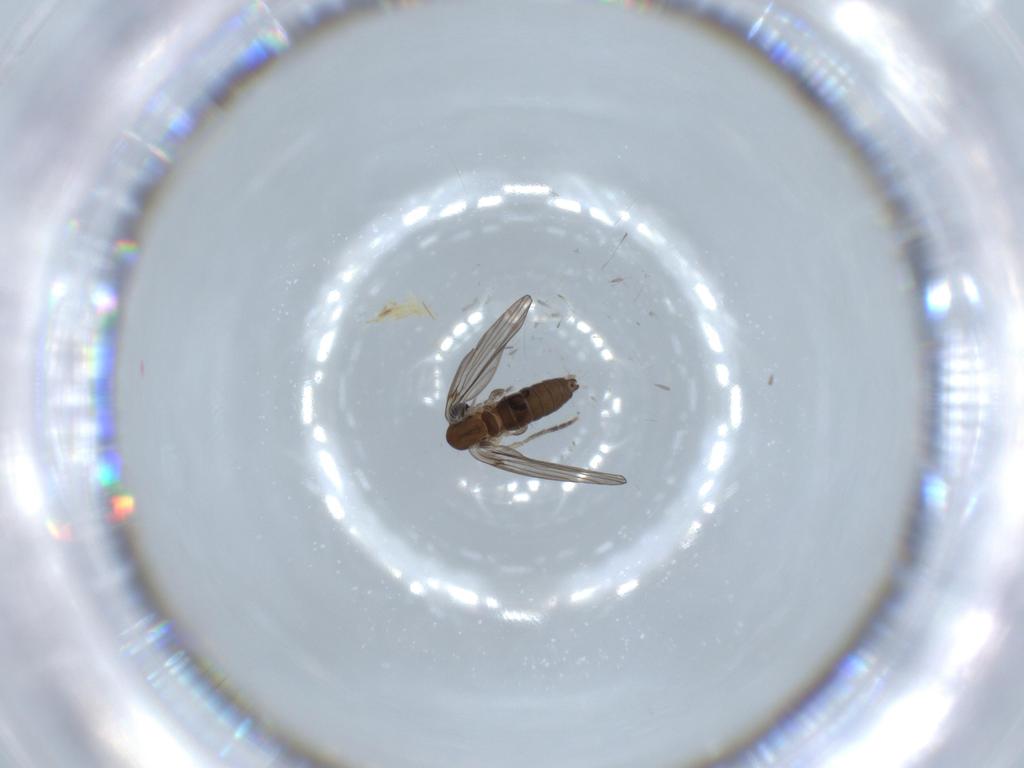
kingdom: Animalia
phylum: Arthropoda
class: Insecta
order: Diptera
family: Psychodidae
